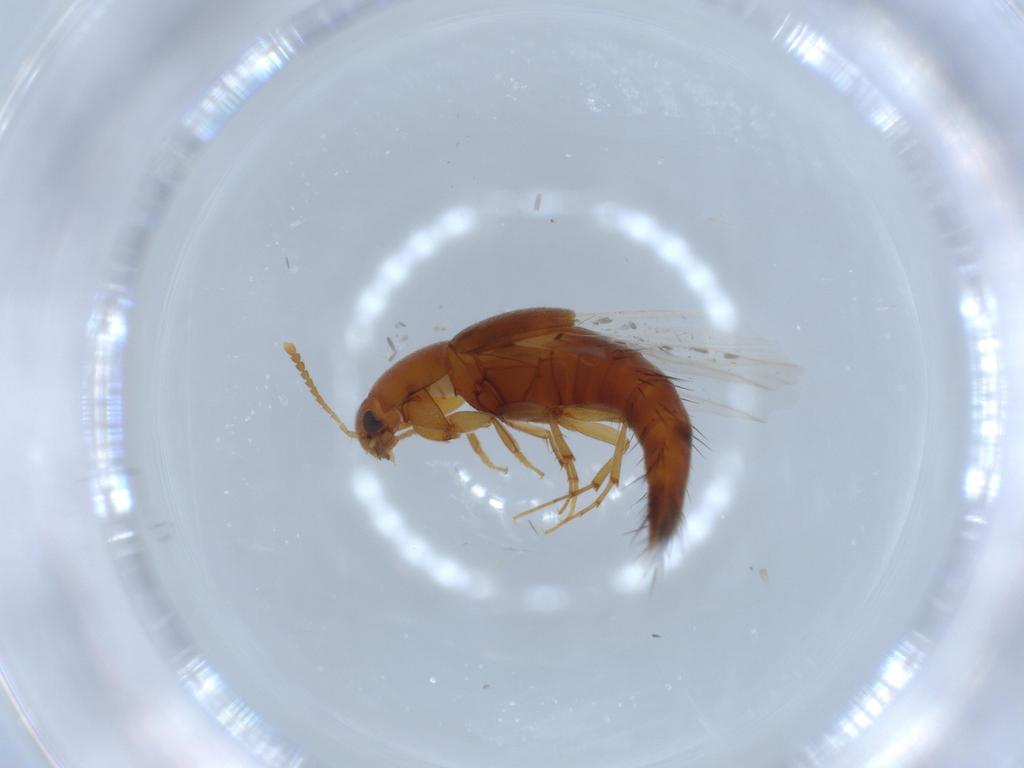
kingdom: Animalia
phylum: Arthropoda
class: Insecta
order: Coleoptera
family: Staphylinidae
